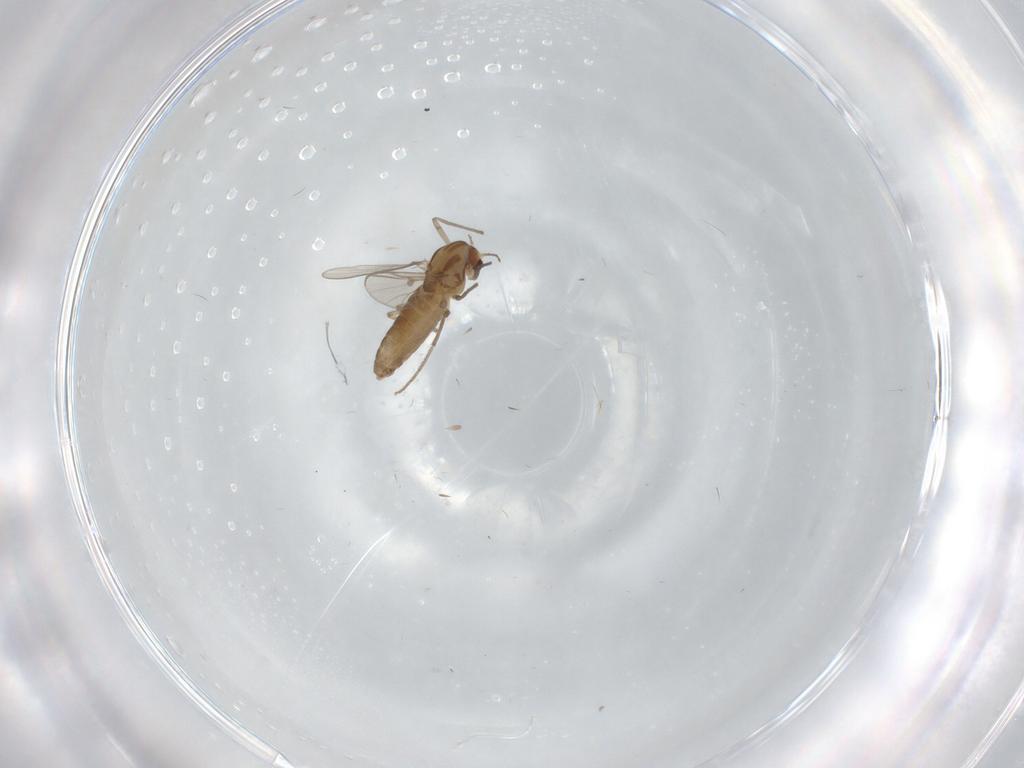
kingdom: Animalia
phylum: Arthropoda
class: Insecta
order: Diptera
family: Chironomidae
